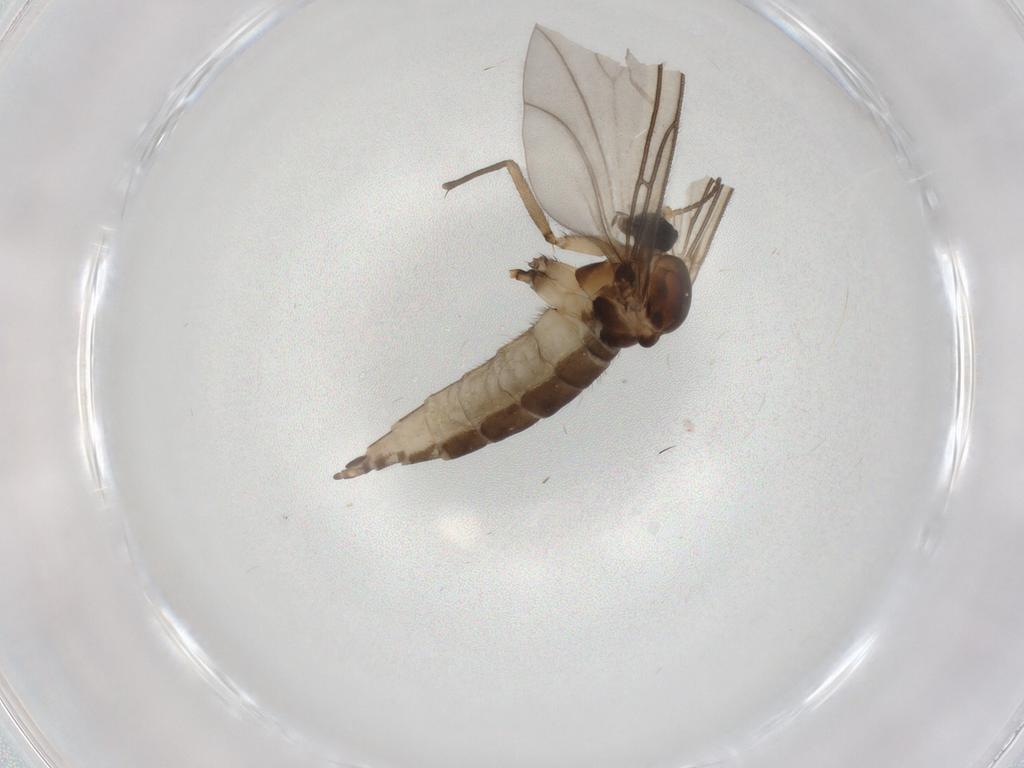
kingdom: Animalia
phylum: Arthropoda
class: Insecta
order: Diptera
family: Sciaridae
